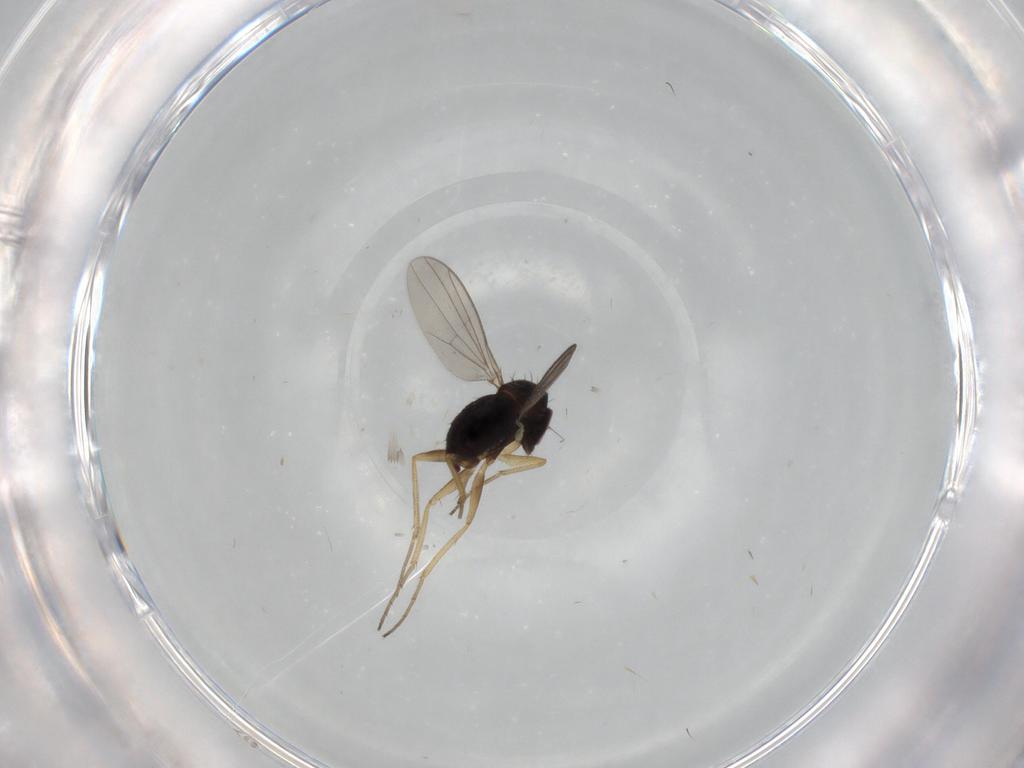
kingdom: Animalia
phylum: Arthropoda
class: Insecta
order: Diptera
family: Dolichopodidae
